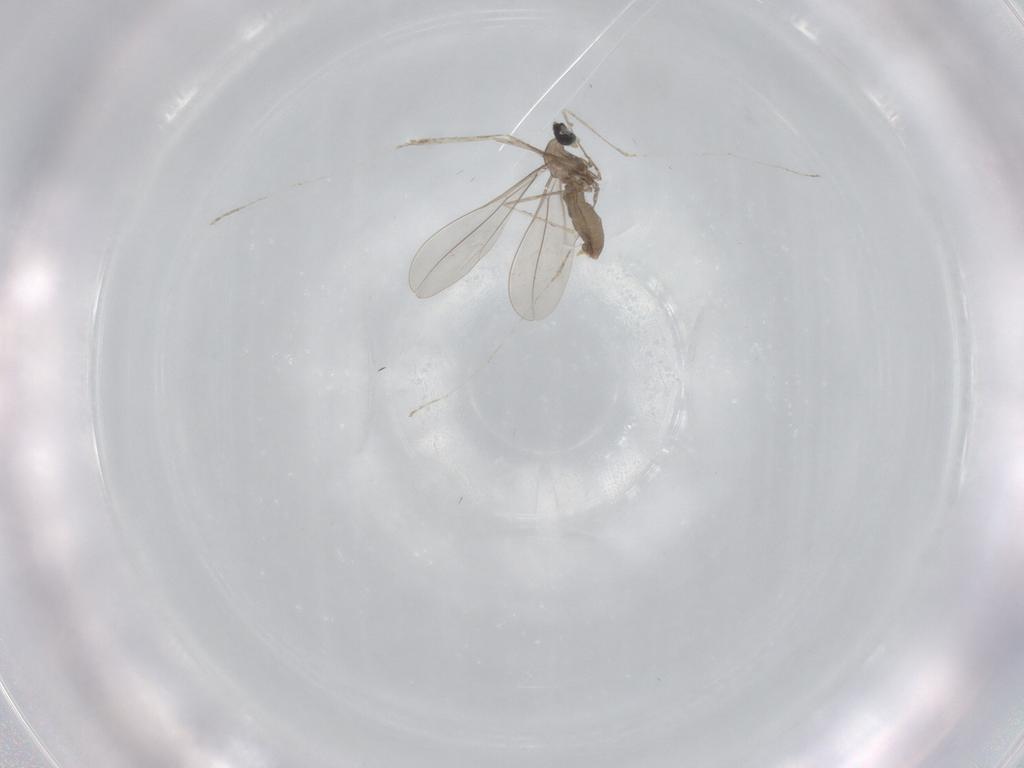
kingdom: Animalia
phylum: Arthropoda
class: Insecta
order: Diptera
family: Cecidomyiidae
